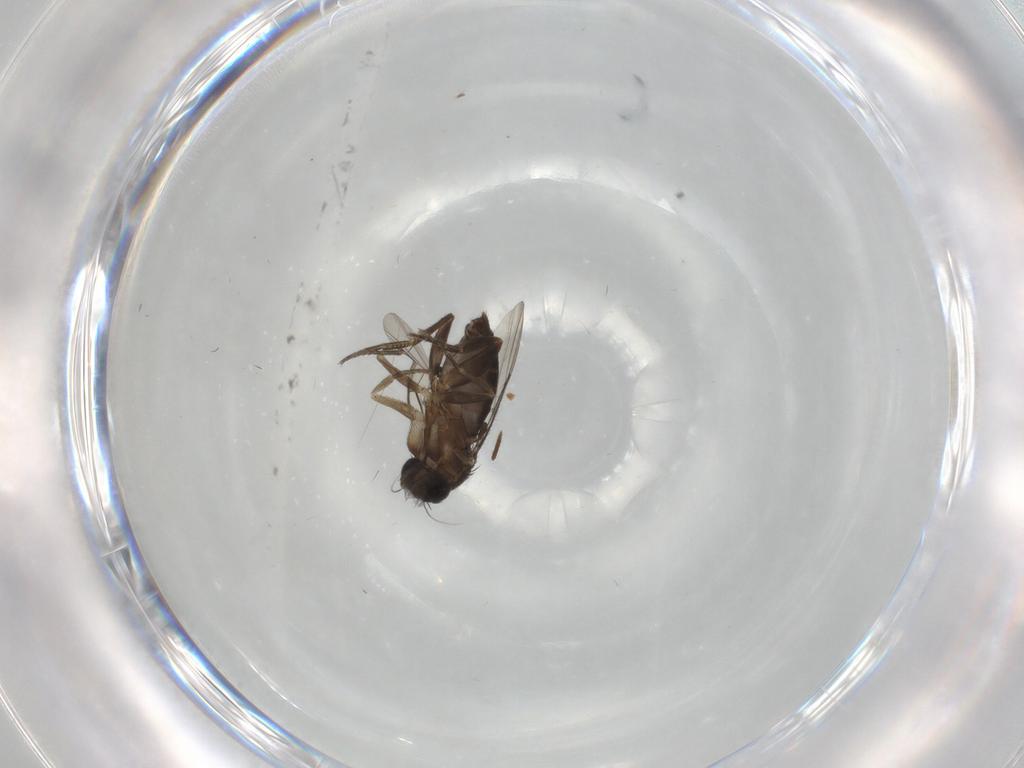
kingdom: Animalia
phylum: Arthropoda
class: Insecta
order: Diptera
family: Phoridae
